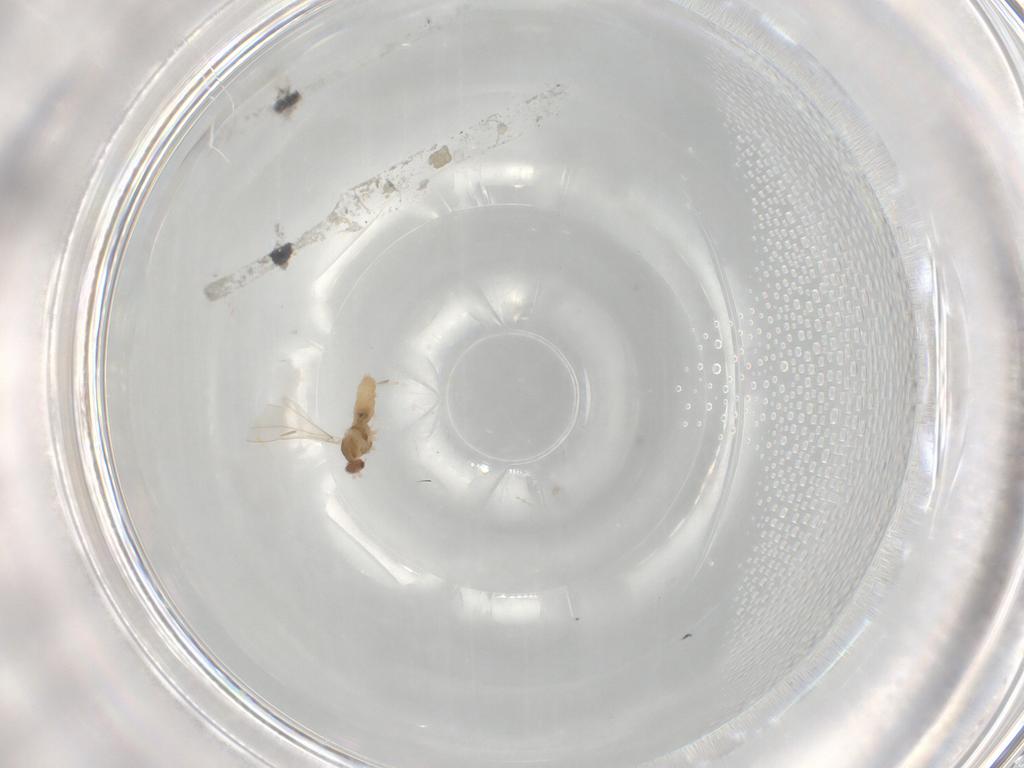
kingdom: Animalia
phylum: Arthropoda
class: Insecta
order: Diptera
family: Cecidomyiidae
